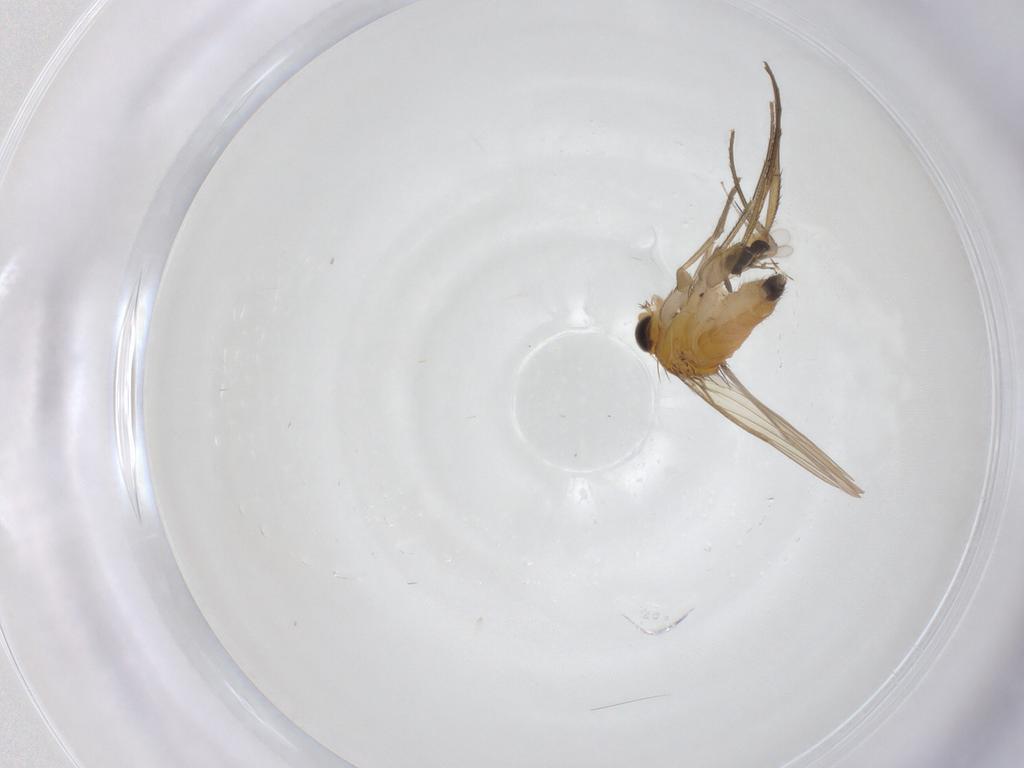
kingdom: Animalia
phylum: Arthropoda
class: Insecta
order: Diptera
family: Phoridae
